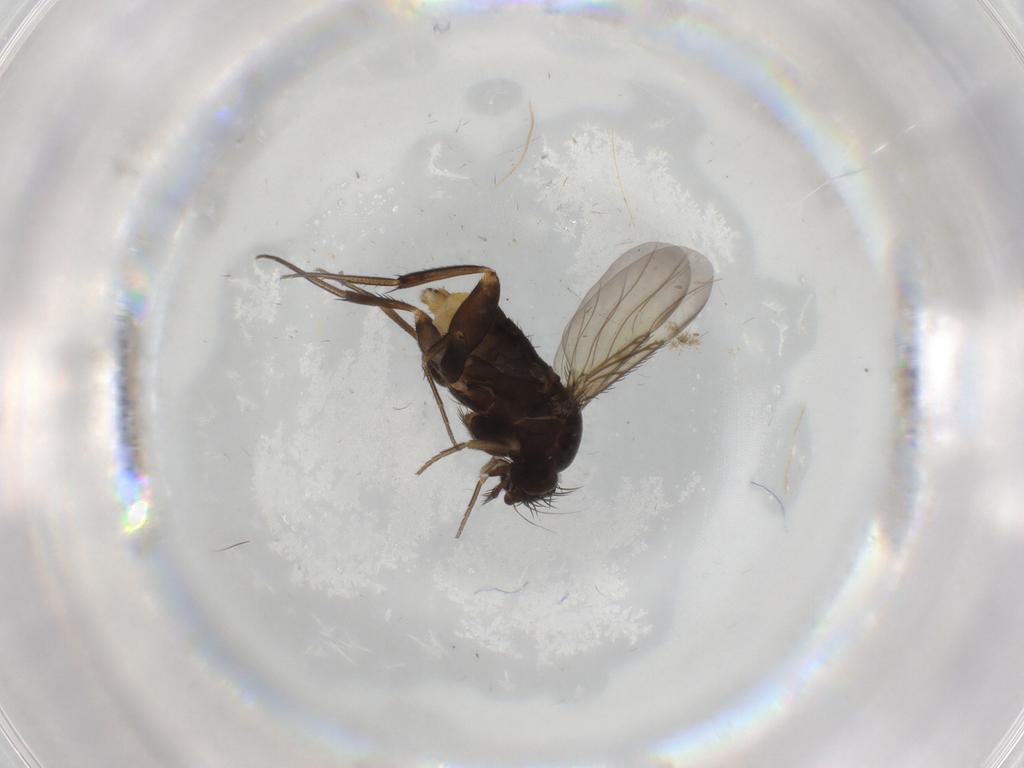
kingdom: Animalia
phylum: Arthropoda
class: Insecta
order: Diptera
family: Phoridae
